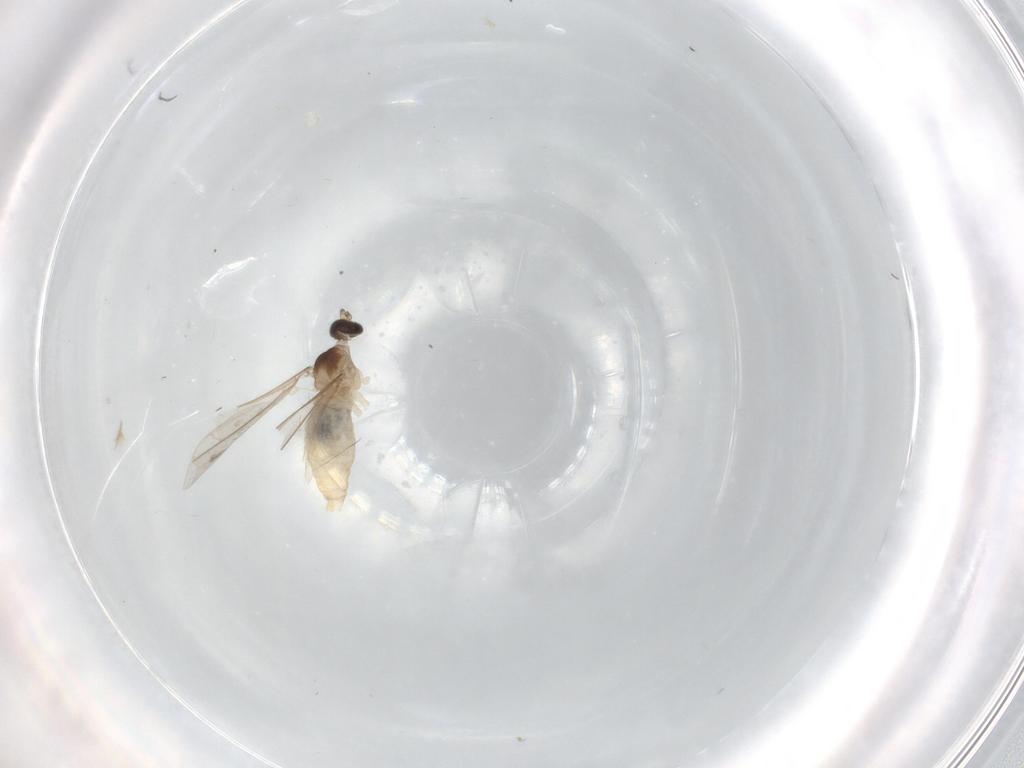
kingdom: Animalia
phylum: Arthropoda
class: Insecta
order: Diptera
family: Cecidomyiidae
